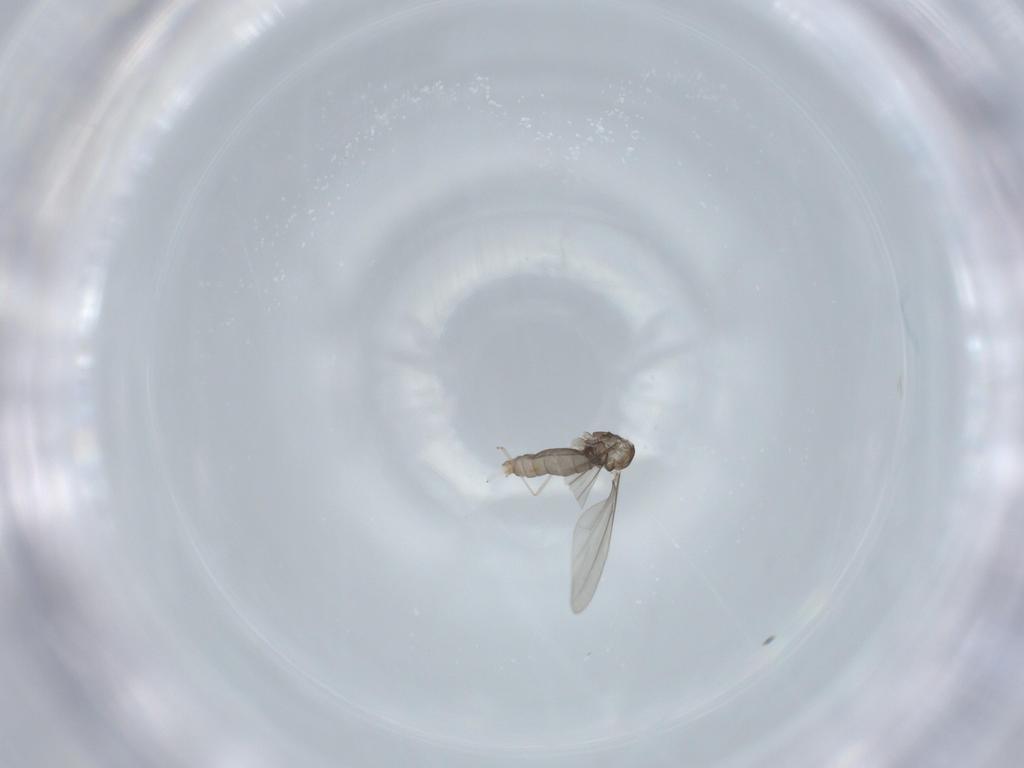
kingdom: Animalia
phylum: Arthropoda
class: Insecta
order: Diptera
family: Cecidomyiidae
